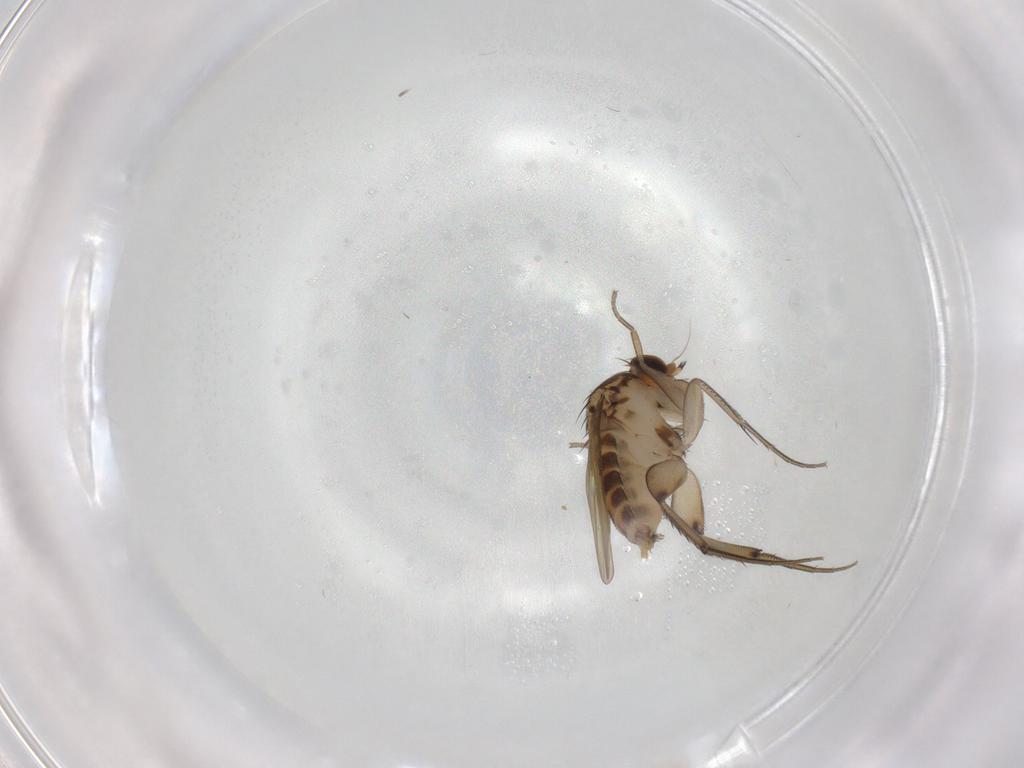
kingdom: Animalia
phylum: Arthropoda
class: Insecta
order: Diptera
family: Phoridae
